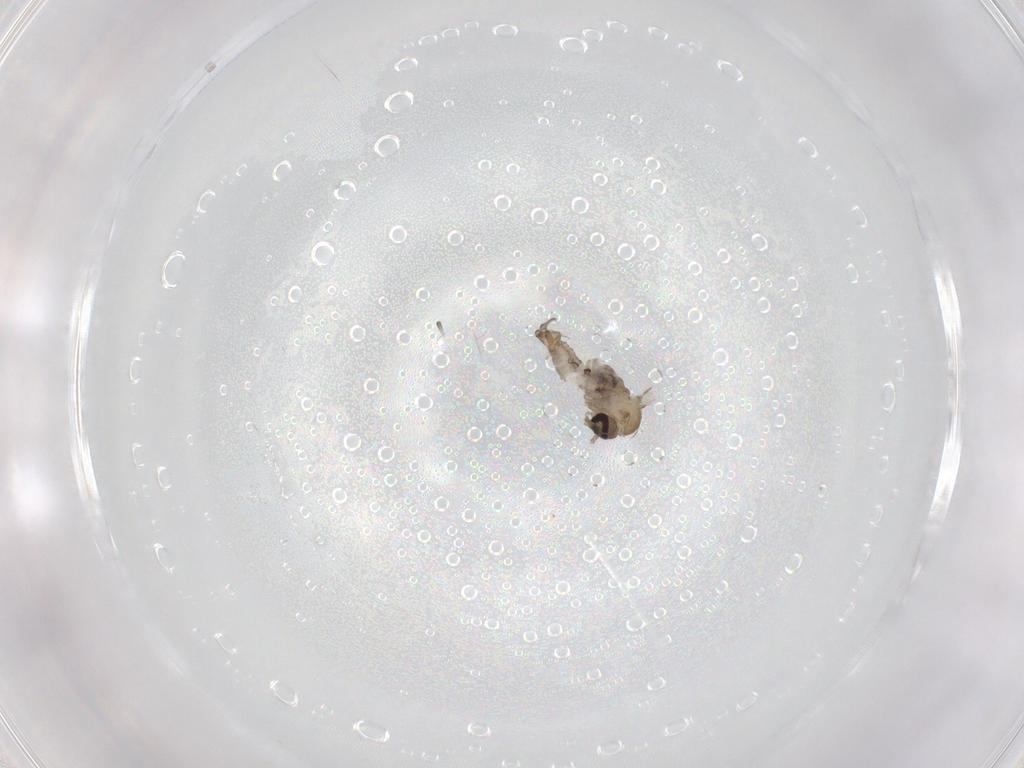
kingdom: Animalia
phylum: Arthropoda
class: Insecta
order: Diptera
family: Psychodidae
